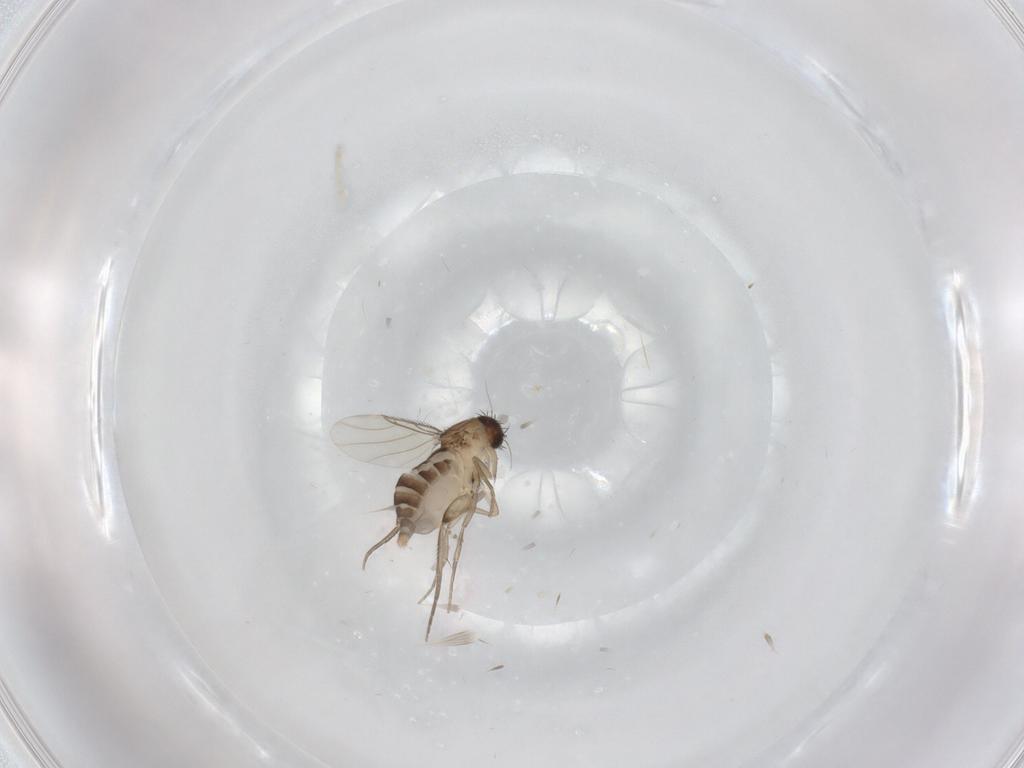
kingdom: Animalia
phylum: Arthropoda
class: Insecta
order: Diptera
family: Phoridae
